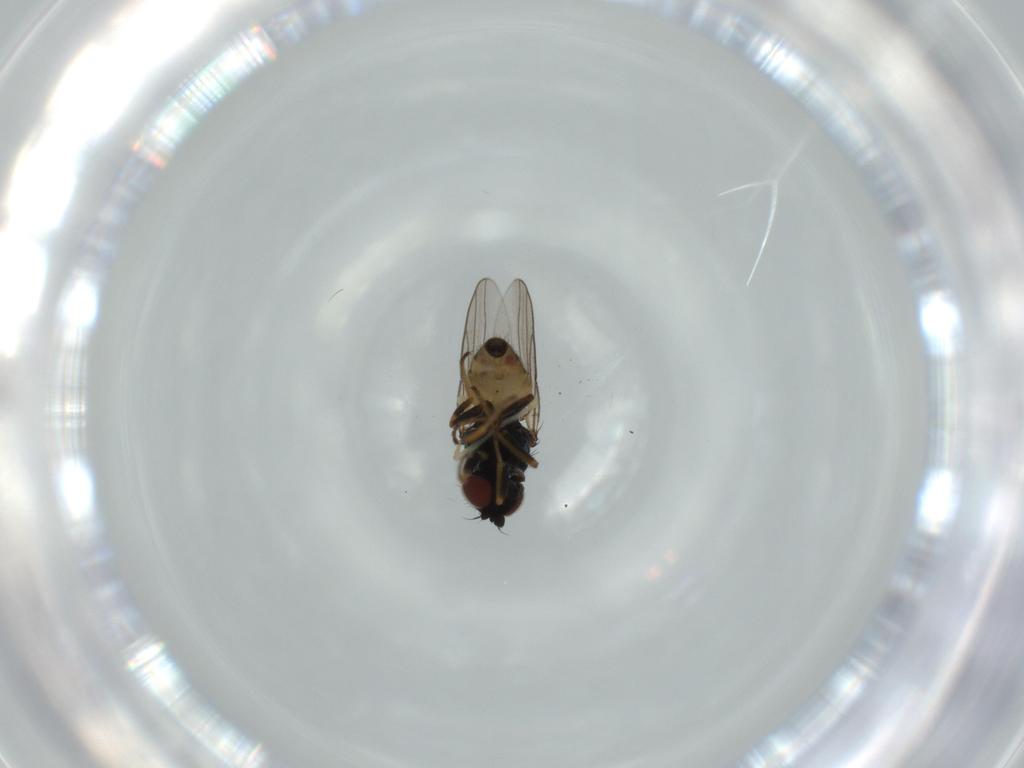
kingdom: Animalia
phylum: Arthropoda
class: Insecta
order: Diptera
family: Chloropidae
